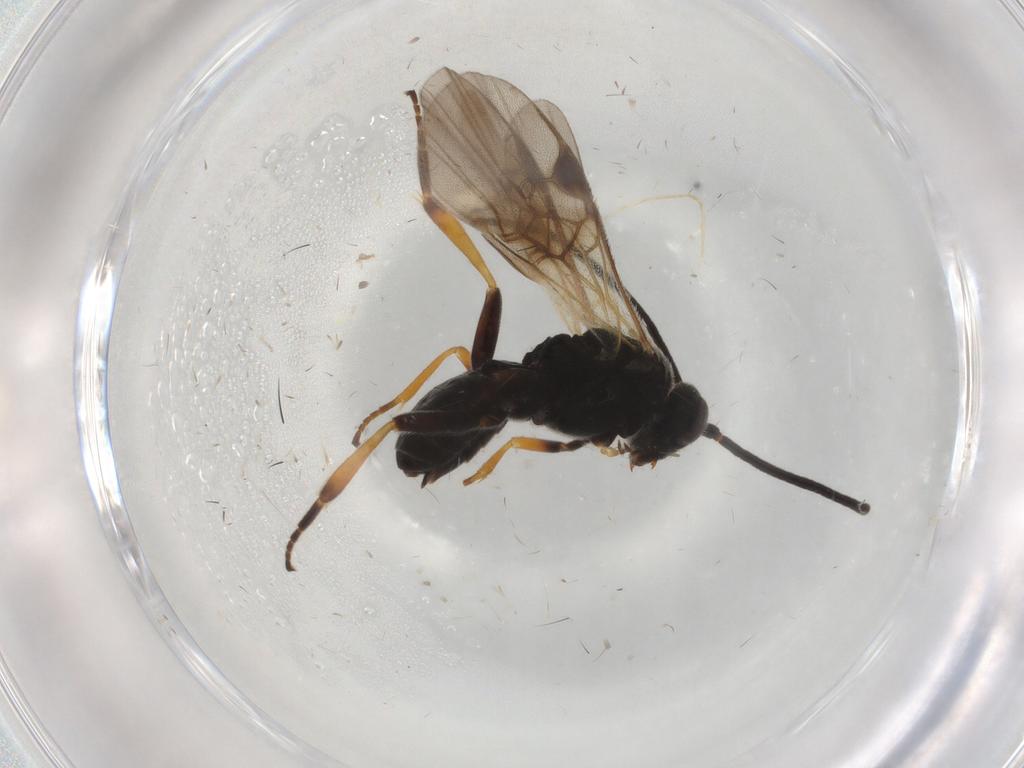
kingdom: Animalia
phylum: Arthropoda
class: Insecta
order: Hymenoptera
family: Braconidae
